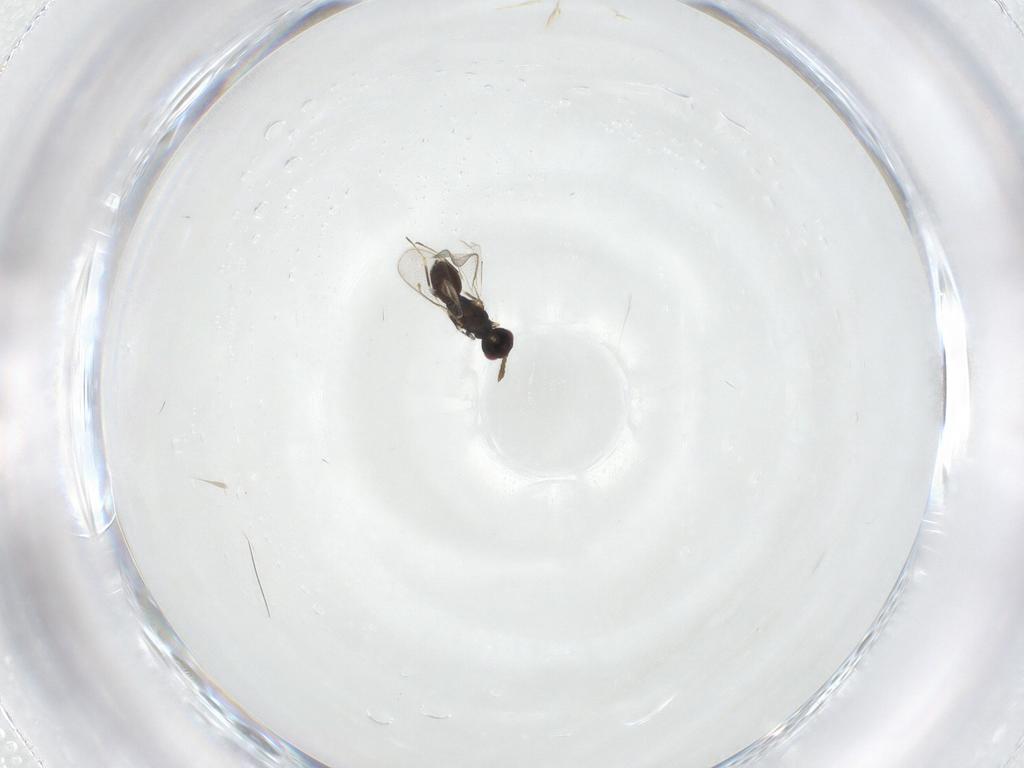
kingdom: Animalia
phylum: Arthropoda
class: Insecta
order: Hymenoptera
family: Eulophidae
